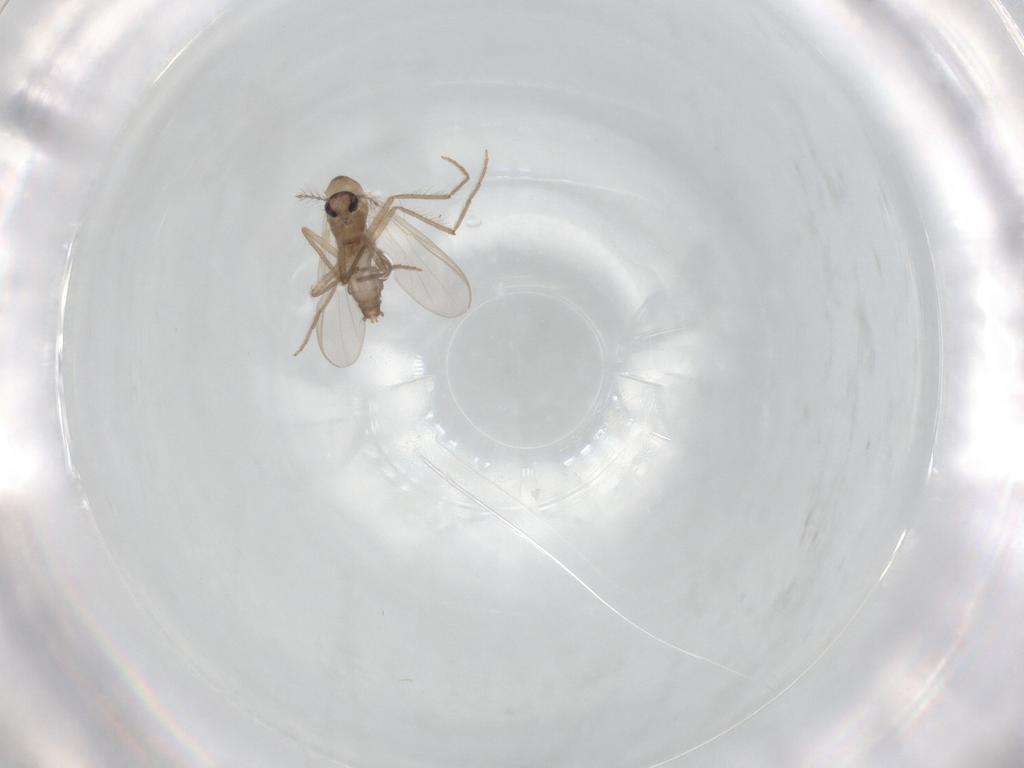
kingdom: Animalia
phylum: Arthropoda
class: Insecta
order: Diptera
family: Chironomidae
